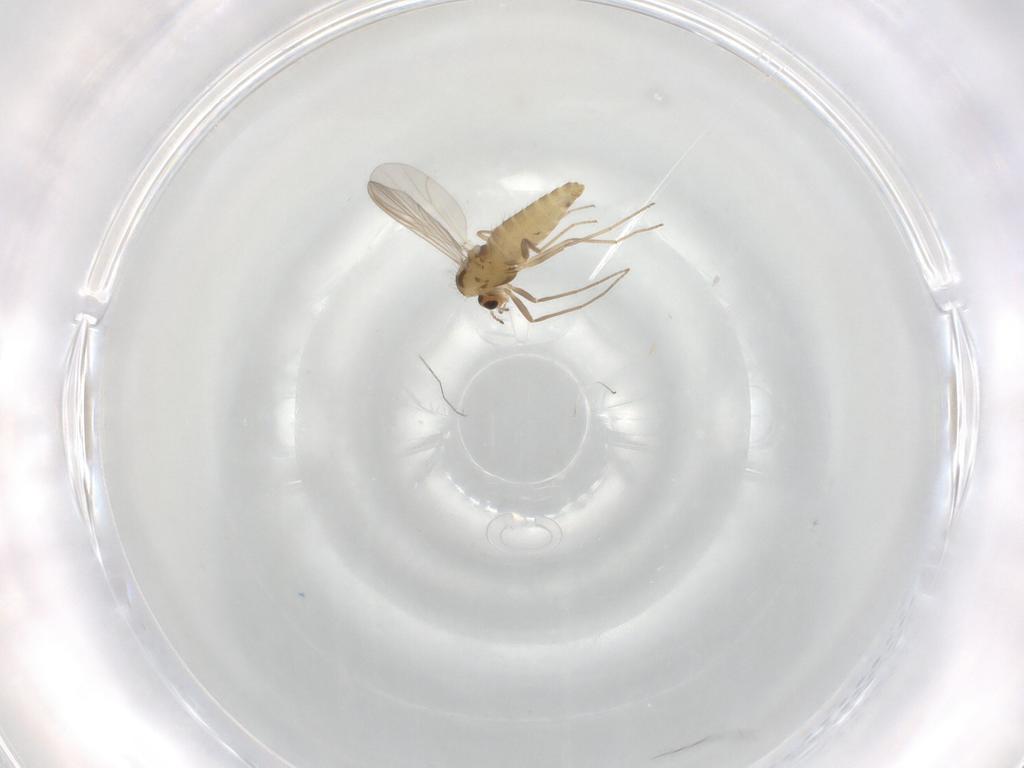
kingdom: Animalia
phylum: Arthropoda
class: Insecta
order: Diptera
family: Chironomidae
